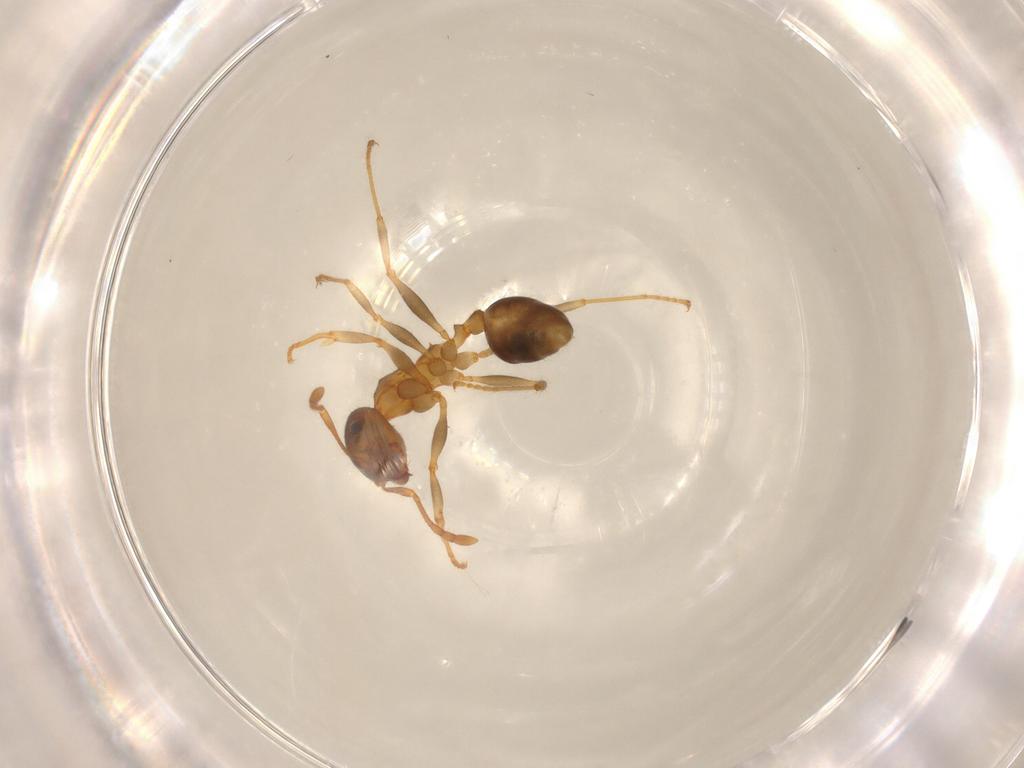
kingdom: Animalia
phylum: Arthropoda
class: Insecta
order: Hymenoptera
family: Formicidae
